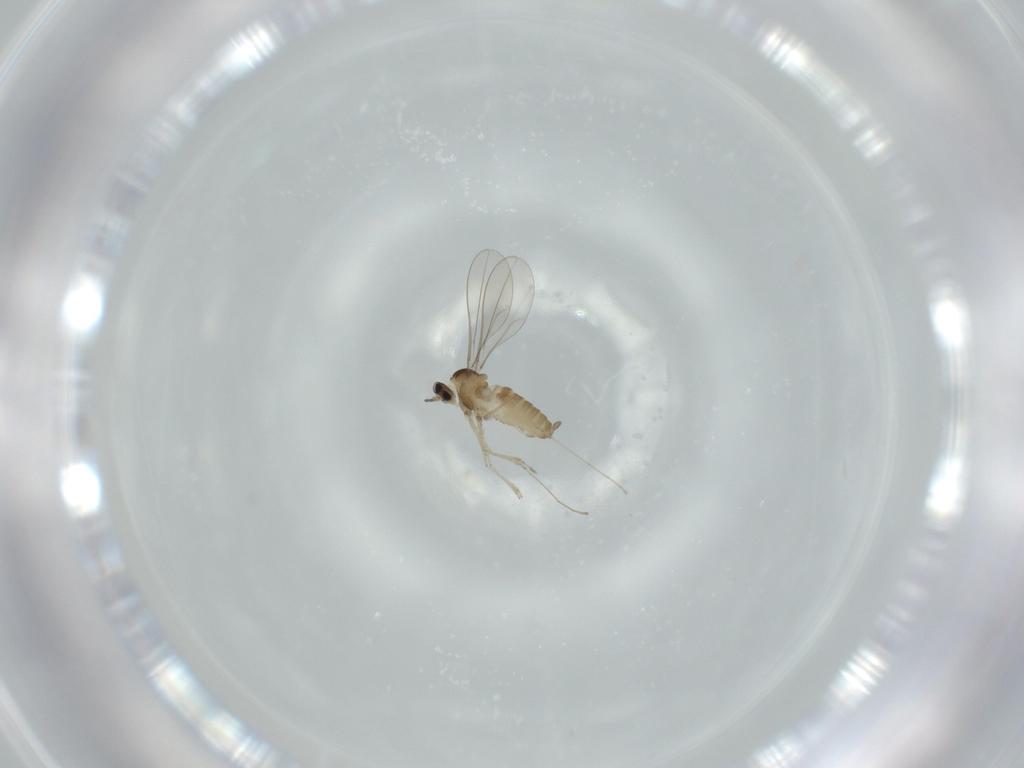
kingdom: Animalia
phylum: Arthropoda
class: Insecta
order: Diptera
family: Cecidomyiidae
